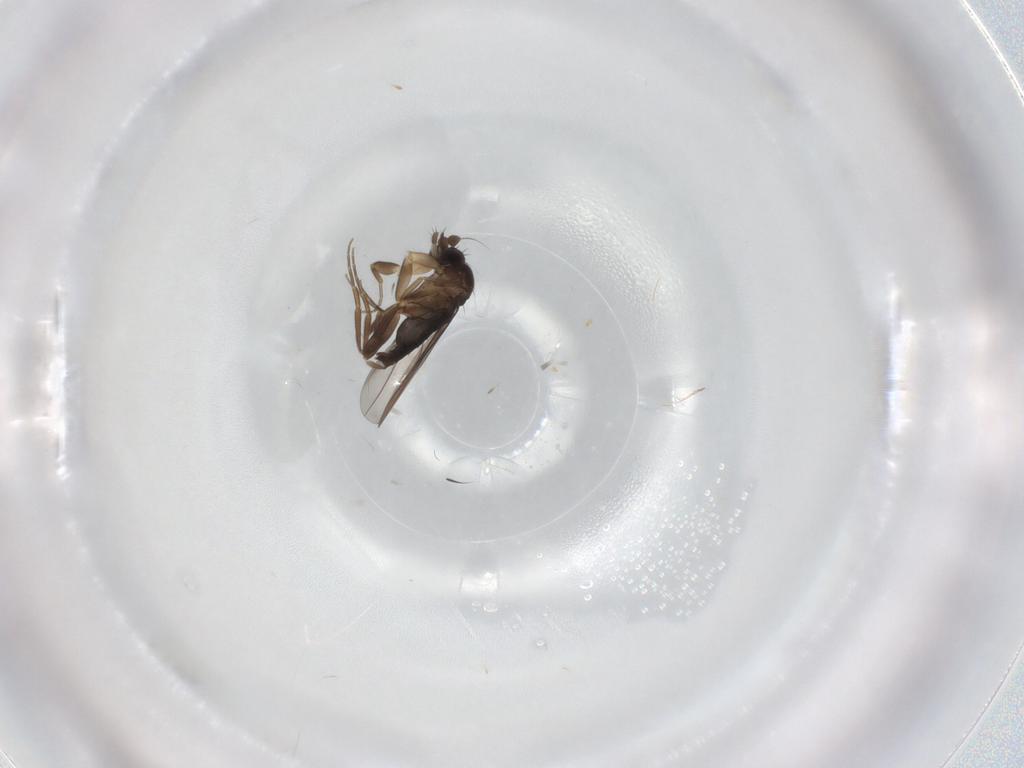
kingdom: Animalia
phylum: Arthropoda
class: Insecta
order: Diptera
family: Phoridae
